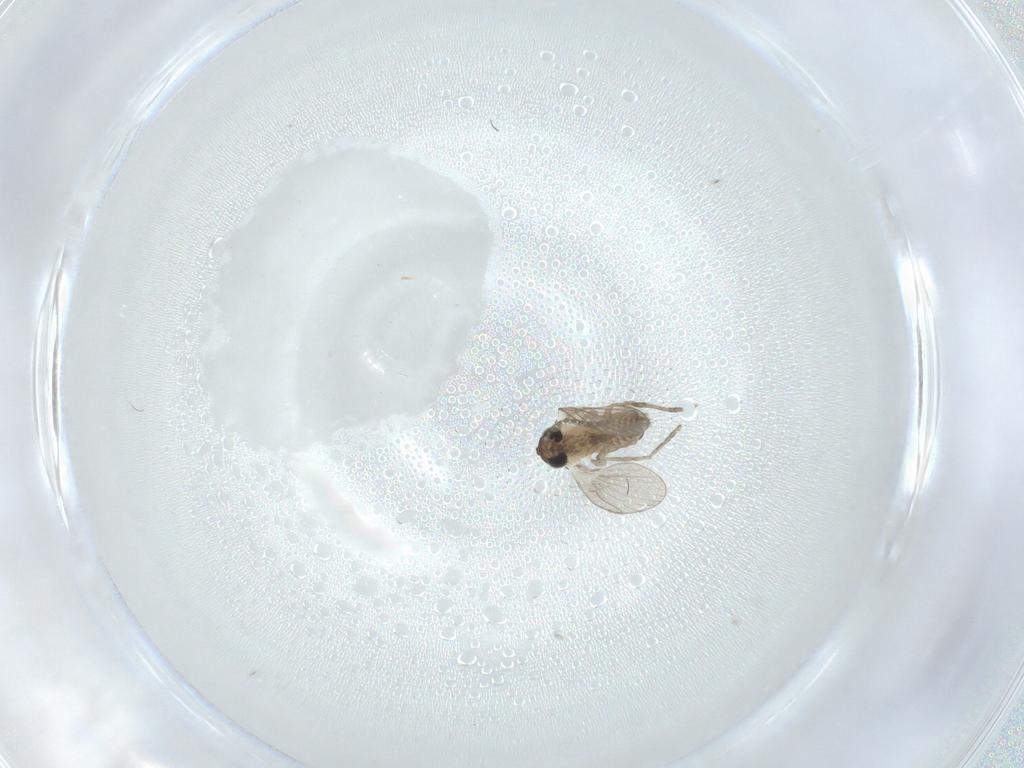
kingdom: Animalia
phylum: Arthropoda
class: Insecta
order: Diptera
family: Psychodidae
